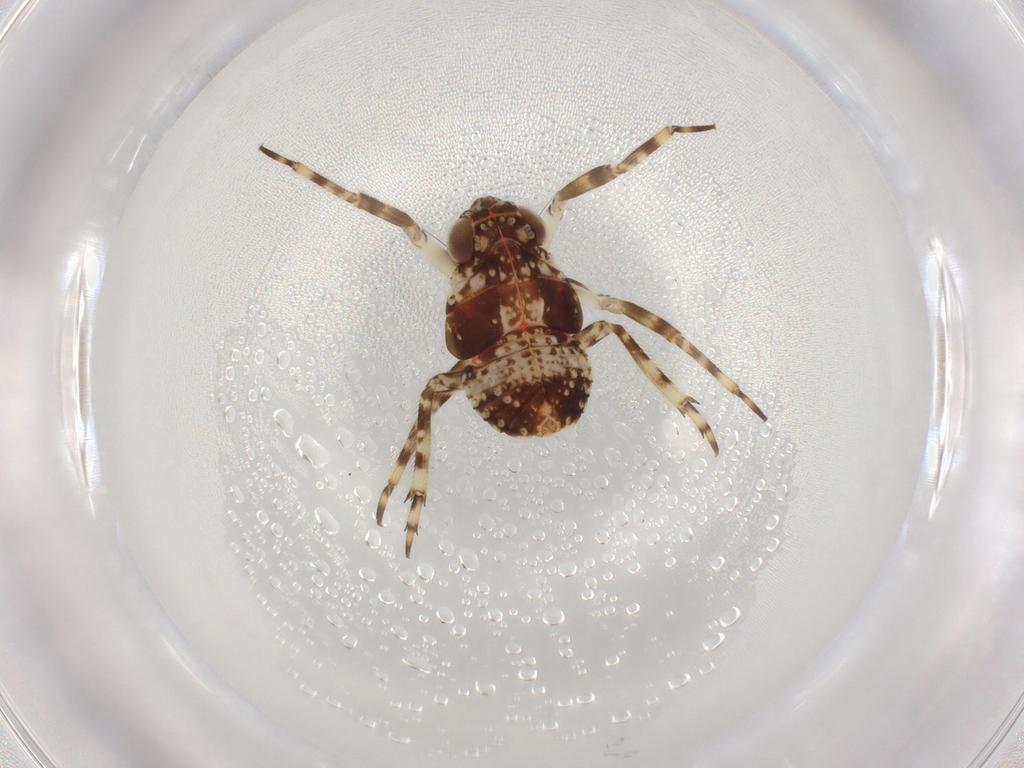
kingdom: Animalia
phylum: Arthropoda
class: Insecta
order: Hemiptera
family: Caliscelidae
